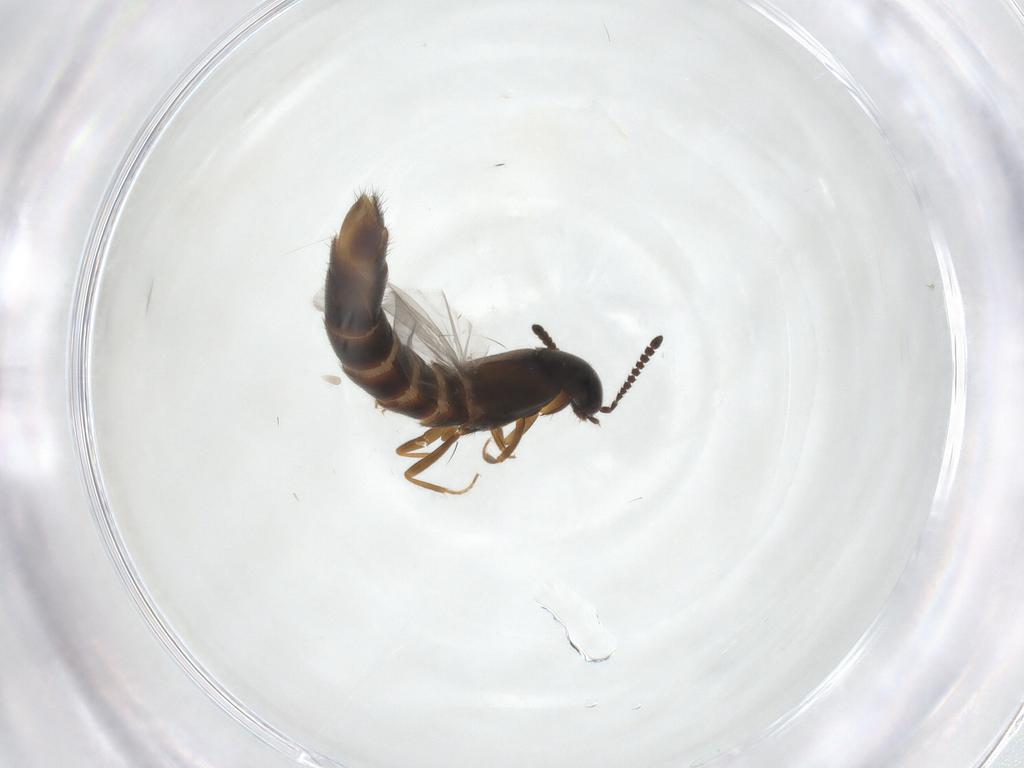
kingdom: Animalia
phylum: Arthropoda
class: Insecta
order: Coleoptera
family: Staphylinidae
